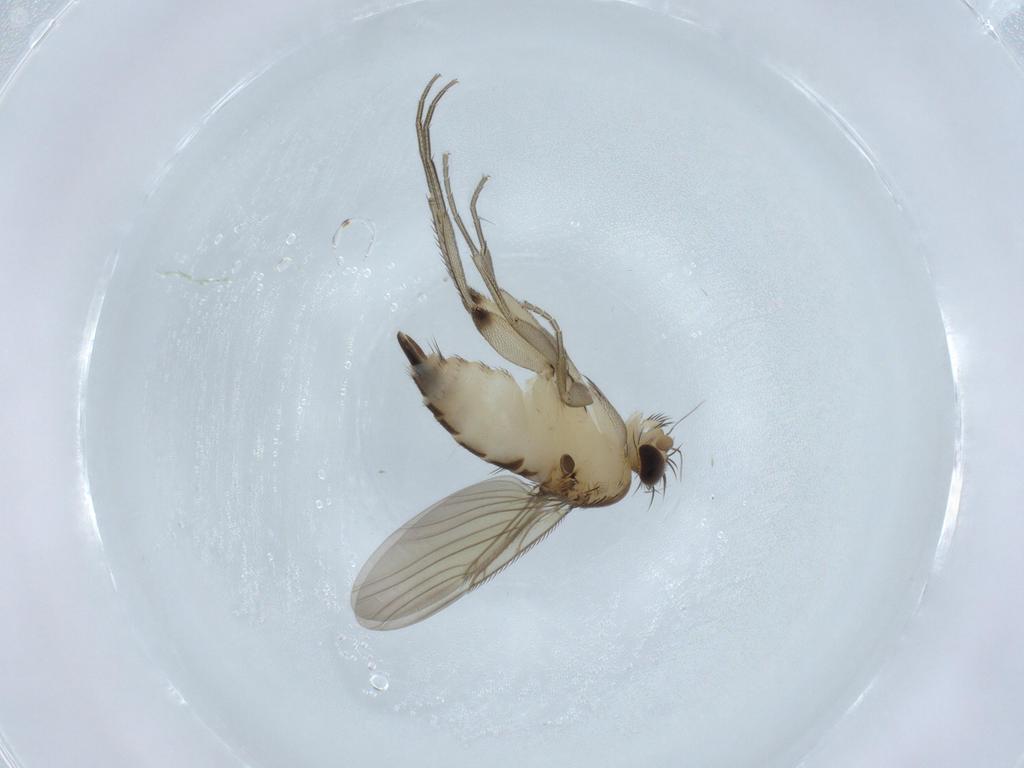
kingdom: Animalia
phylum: Arthropoda
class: Insecta
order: Diptera
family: Phoridae
